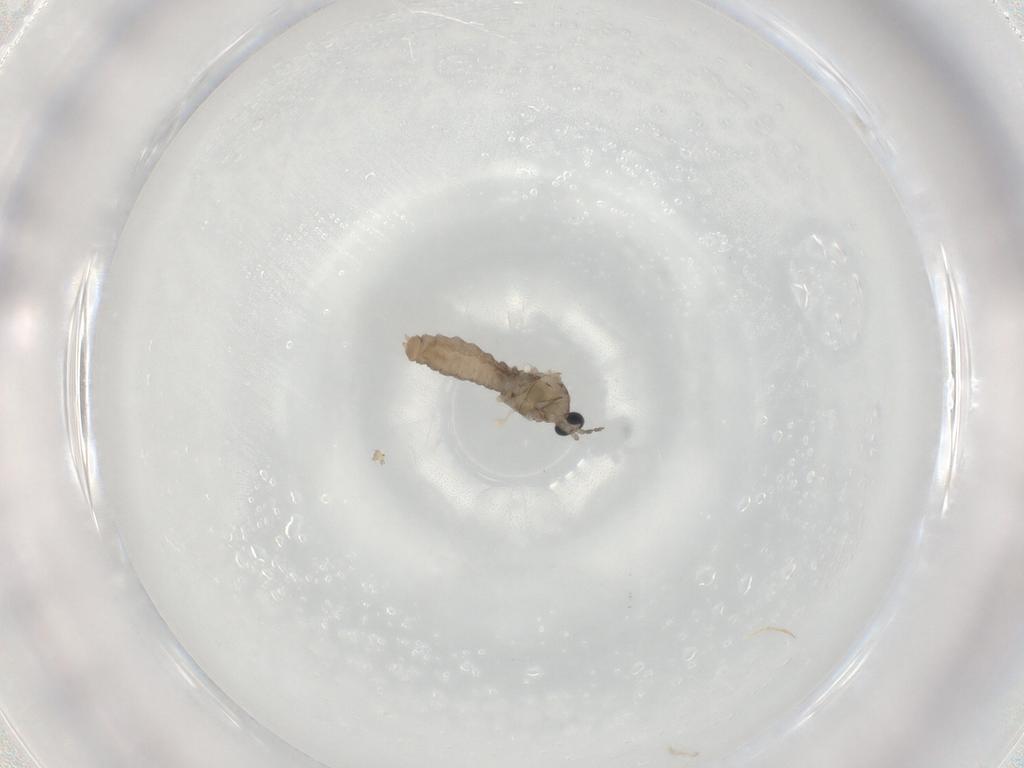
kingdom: Animalia
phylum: Arthropoda
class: Insecta
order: Diptera
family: Cecidomyiidae
